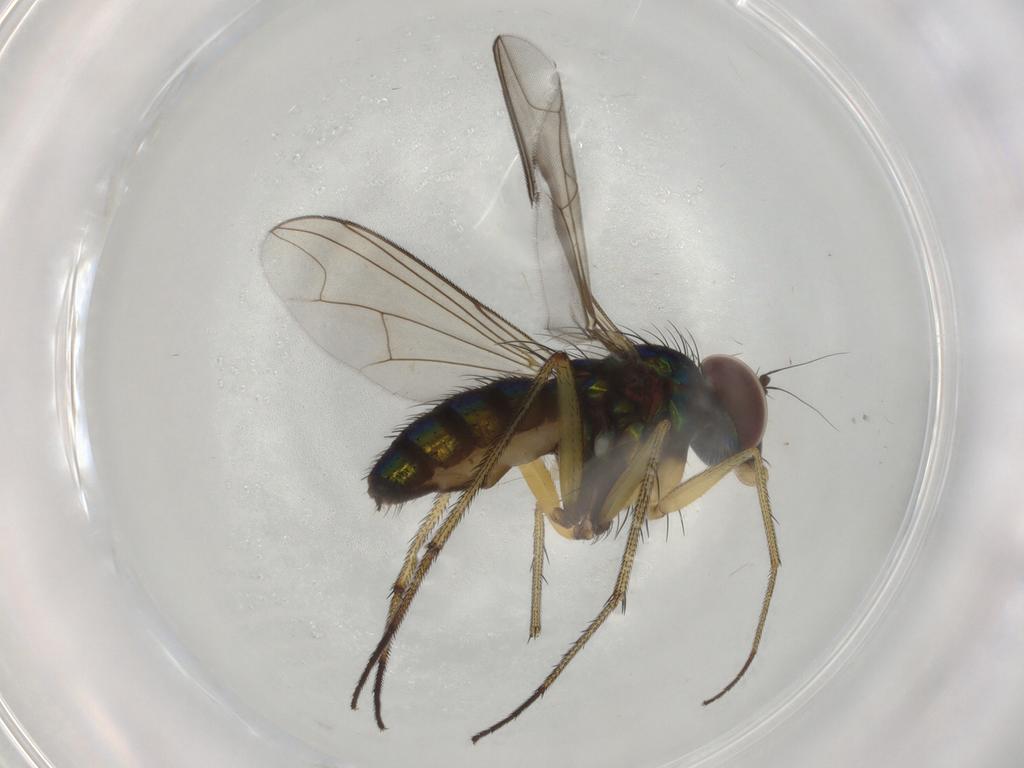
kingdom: Animalia
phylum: Arthropoda
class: Insecta
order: Diptera
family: Dolichopodidae
